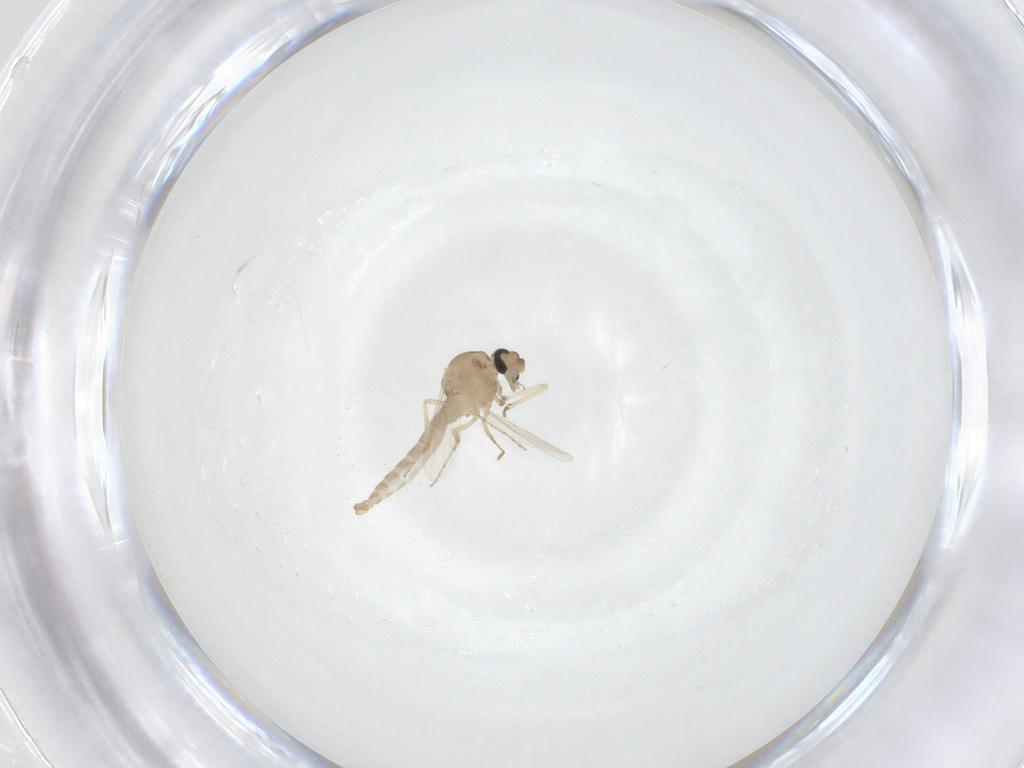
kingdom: Animalia
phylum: Arthropoda
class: Insecta
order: Diptera
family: Ceratopogonidae
